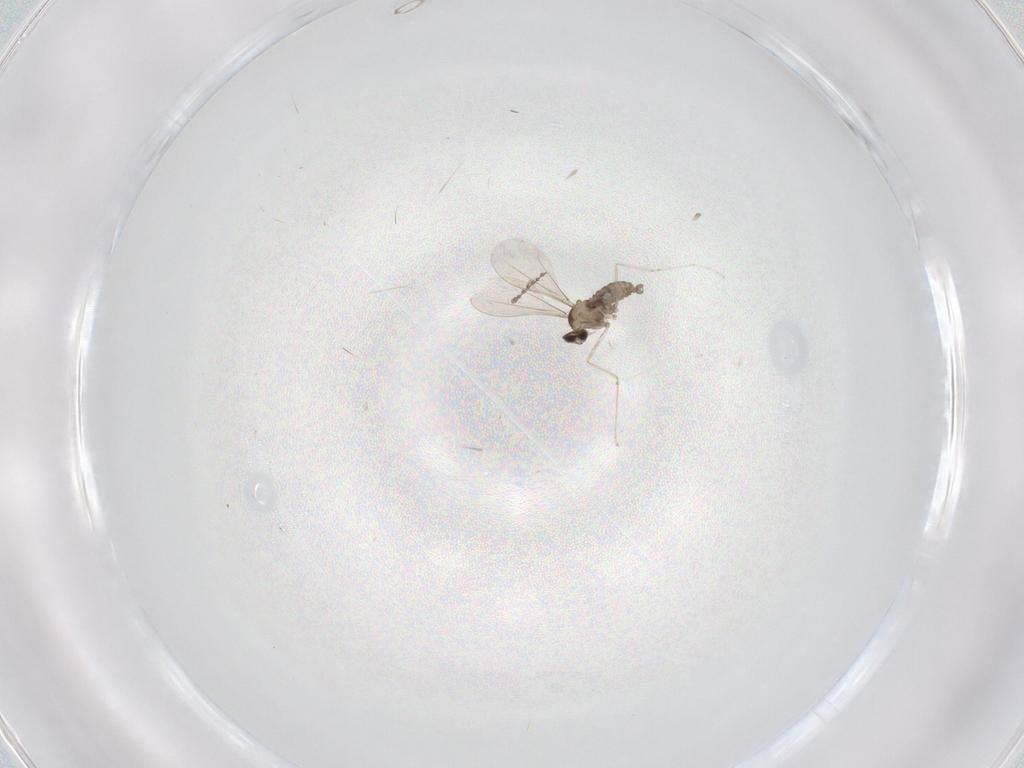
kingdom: Animalia
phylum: Arthropoda
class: Insecta
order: Diptera
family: Cecidomyiidae
